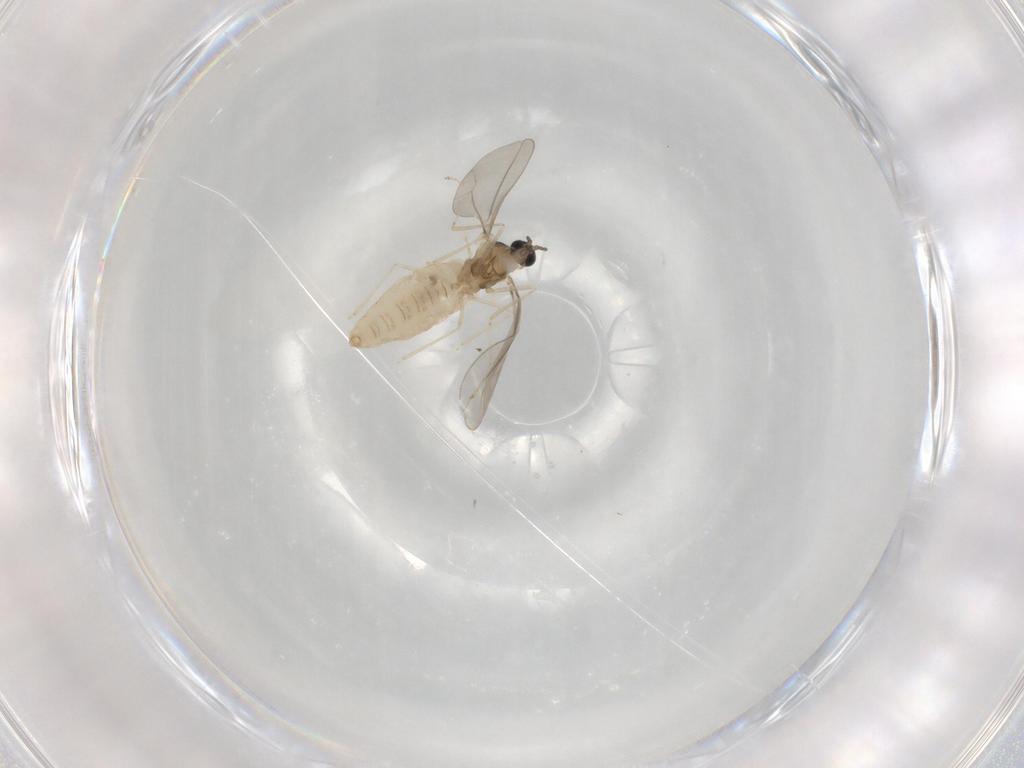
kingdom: Animalia
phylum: Arthropoda
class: Insecta
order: Diptera
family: Cecidomyiidae
